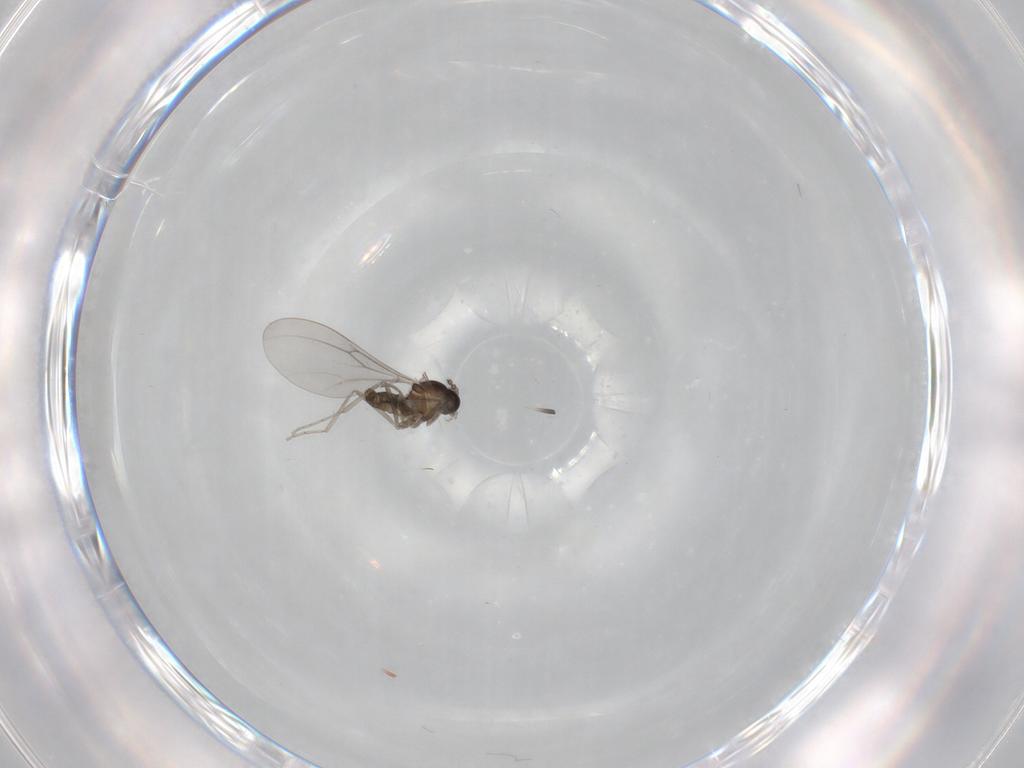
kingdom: Animalia
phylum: Arthropoda
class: Insecta
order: Diptera
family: Cecidomyiidae
